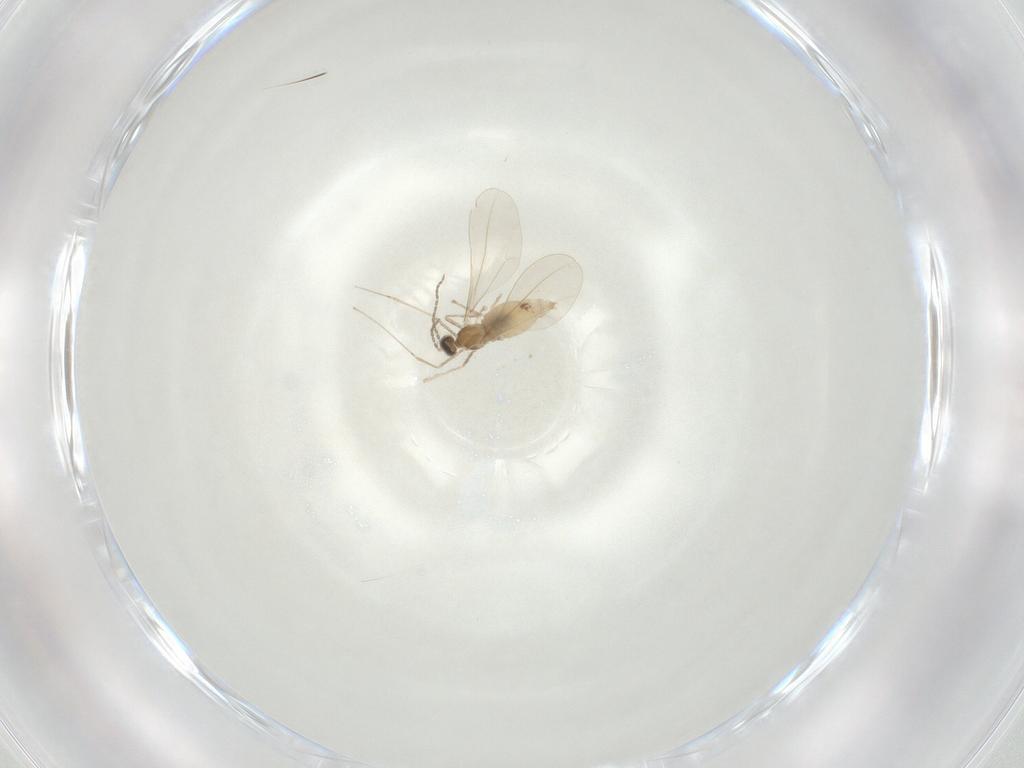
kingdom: Animalia
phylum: Arthropoda
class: Insecta
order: Diptera
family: Cecidomyiidae
